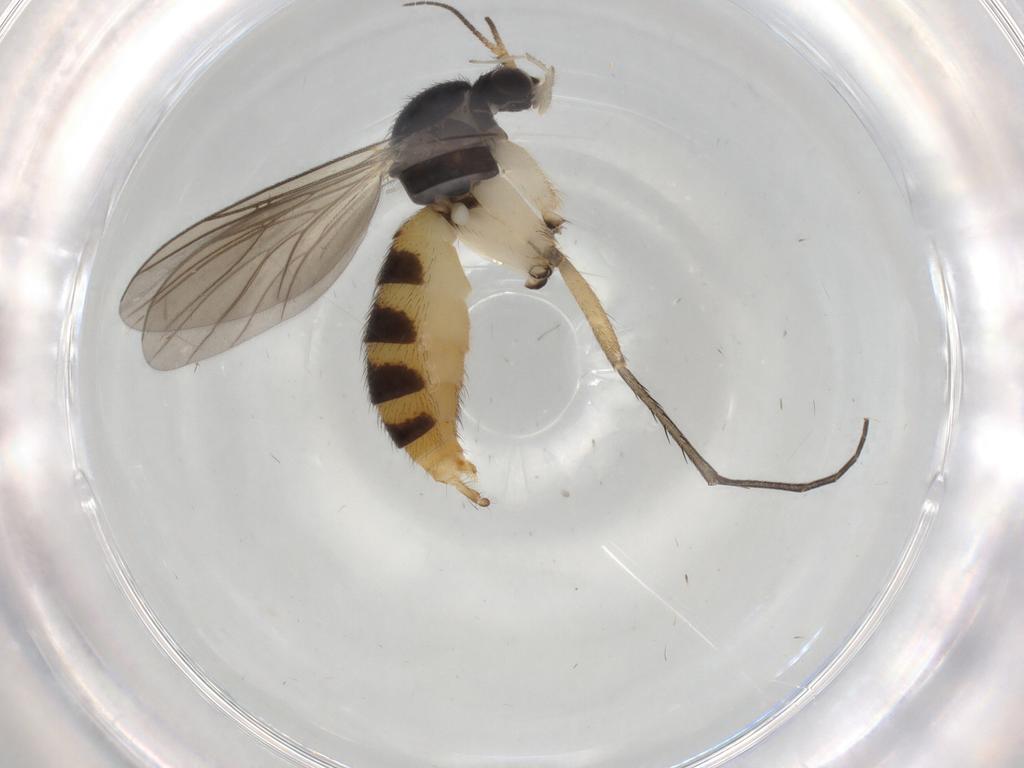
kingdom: Animalia
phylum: Arthropoda
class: Insecta
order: Diptera
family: Mycetophilidae
